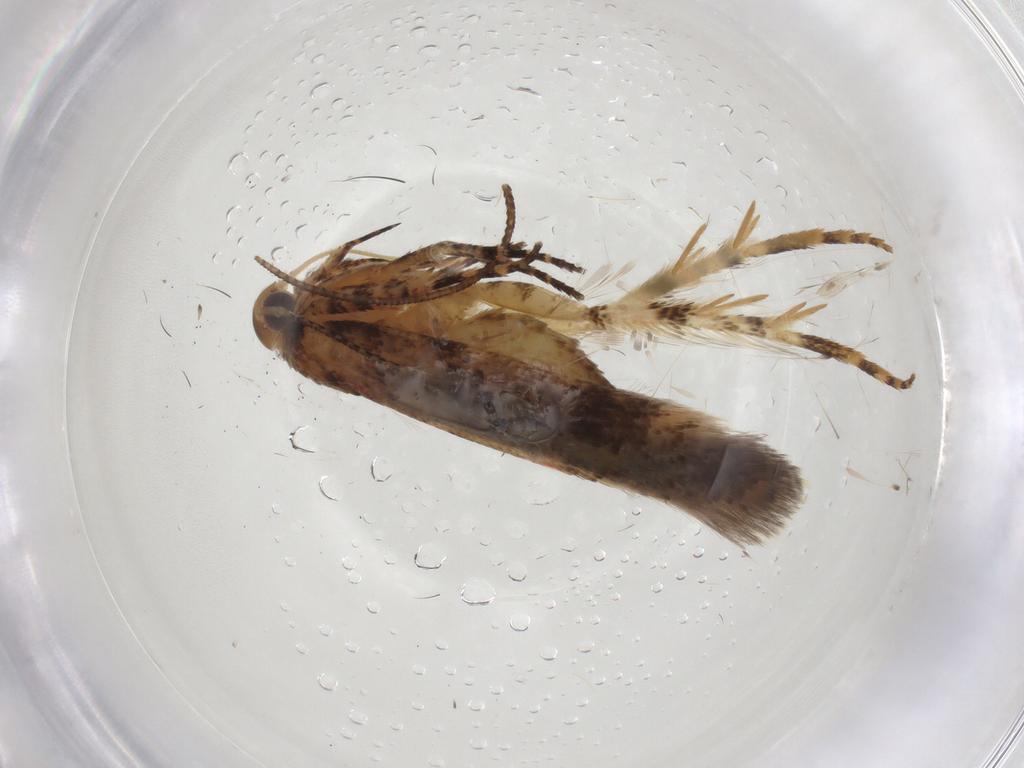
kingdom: Animalia
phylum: Arthropoda
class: Insecta
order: Lepidoptera
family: Gelechiidae
